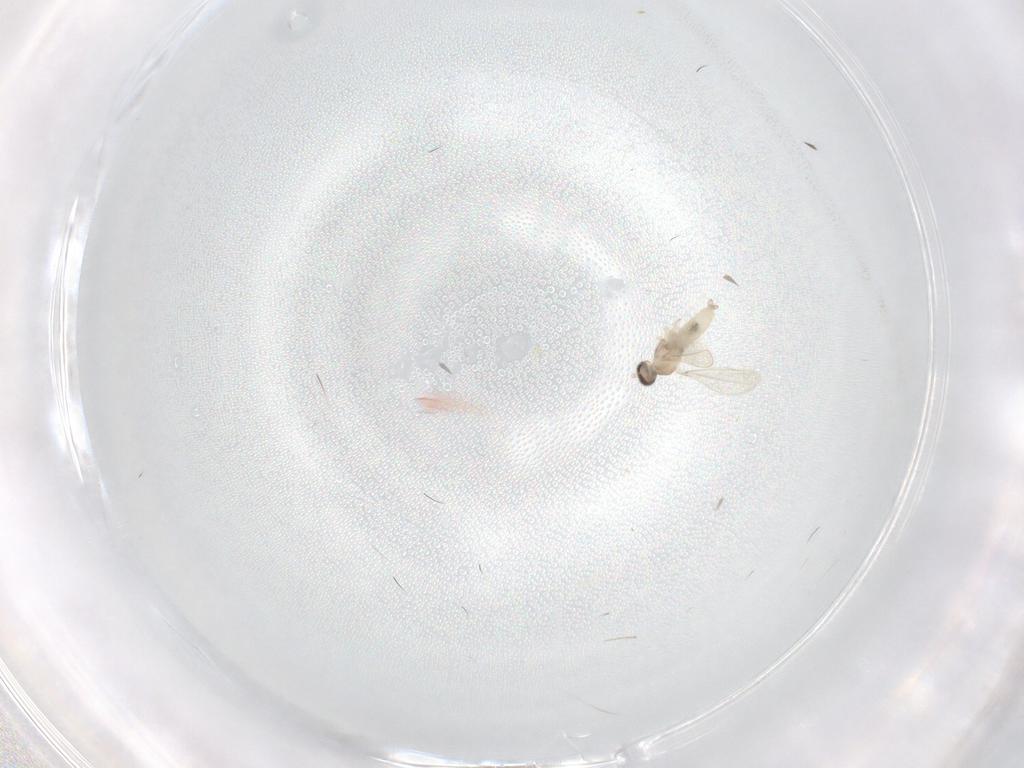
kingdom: Animalia
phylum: Arthropoda
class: Insecta
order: Diptera
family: Cecidomyiidae
